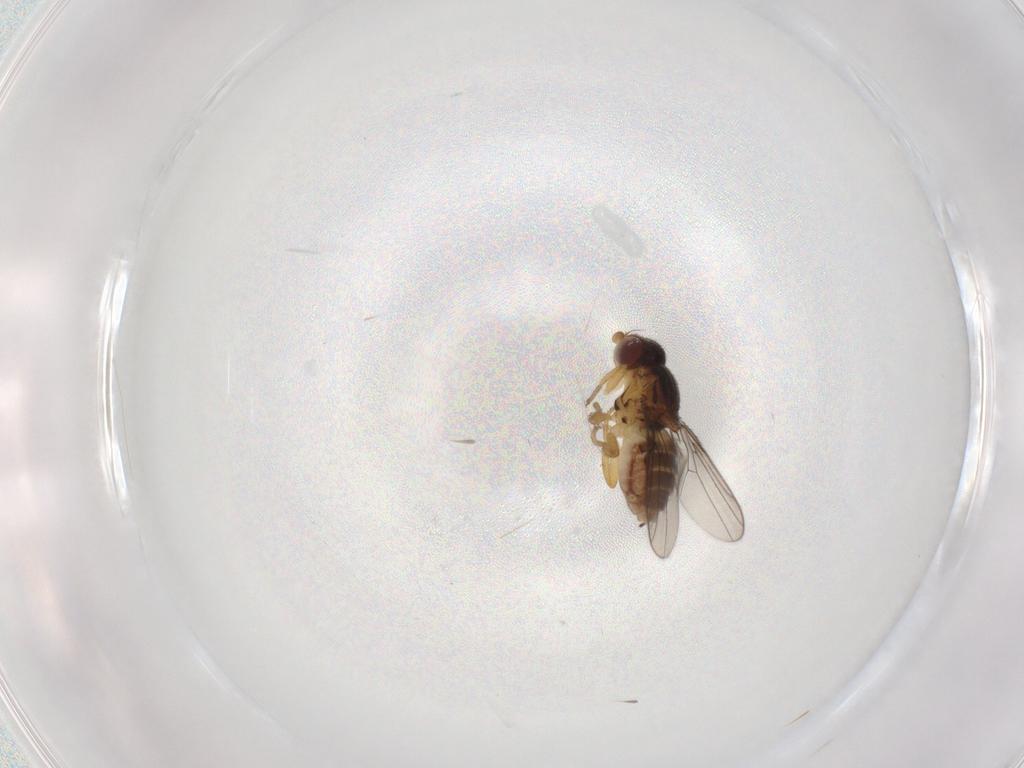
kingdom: Animalia
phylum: Arthropoda
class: Insecta
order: Diptera
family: Chloropidae
